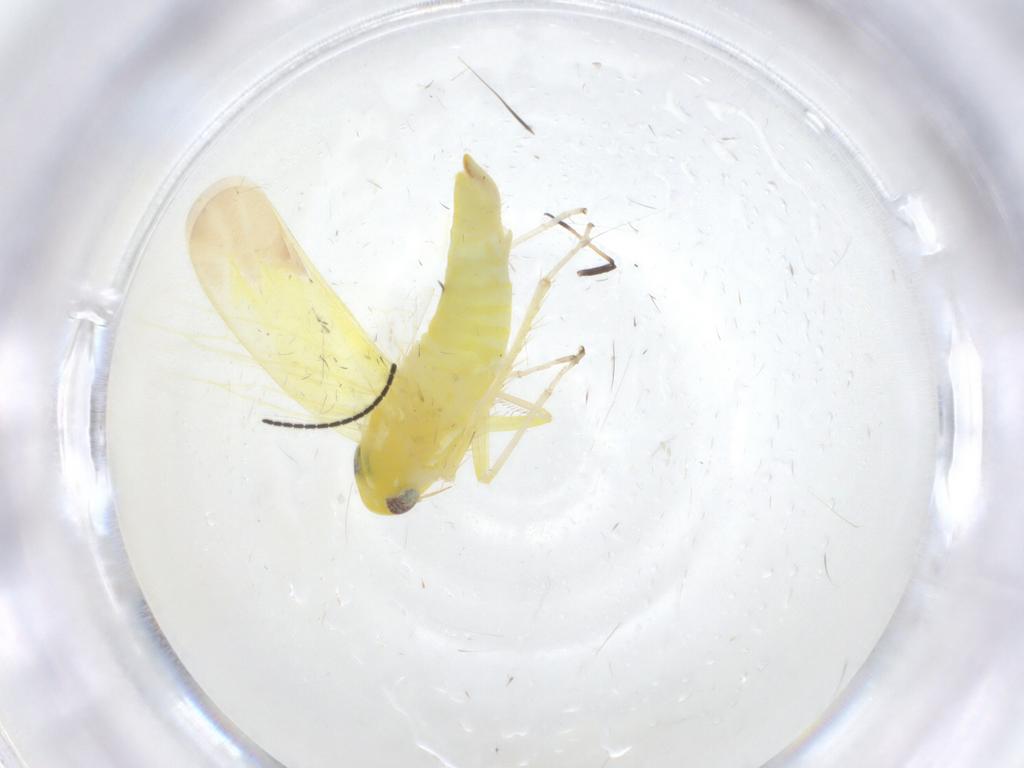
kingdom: Animalia
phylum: Arthropoda
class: Insecta
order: Hemiptera
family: Cicadellidae
